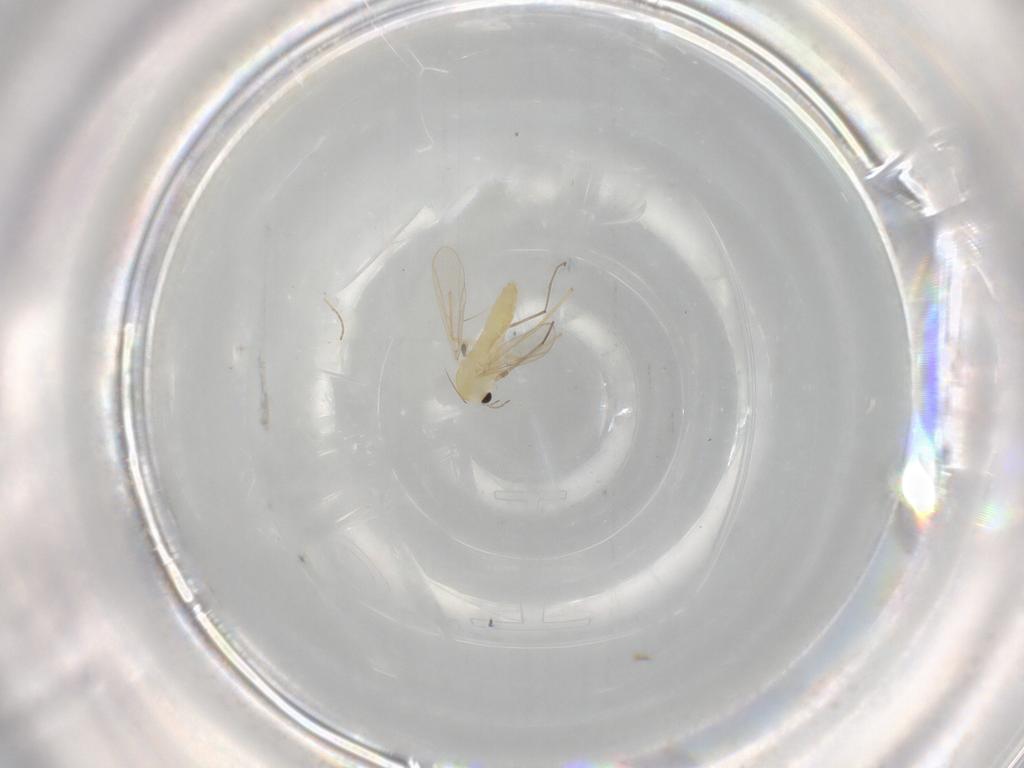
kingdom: Animalia
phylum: Arthropoda
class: Insecta
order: Diptera
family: Chironomidae
